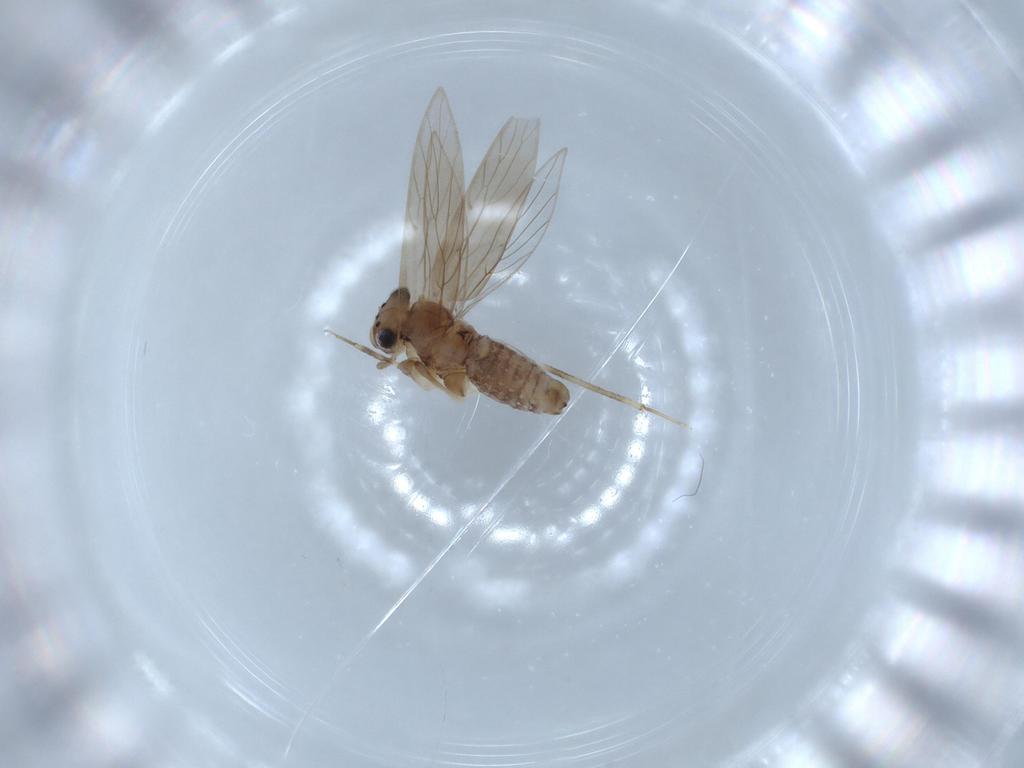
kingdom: Animalia
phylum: Arthropoda
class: Insecta
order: Psocodea
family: Lepidopsocidae
